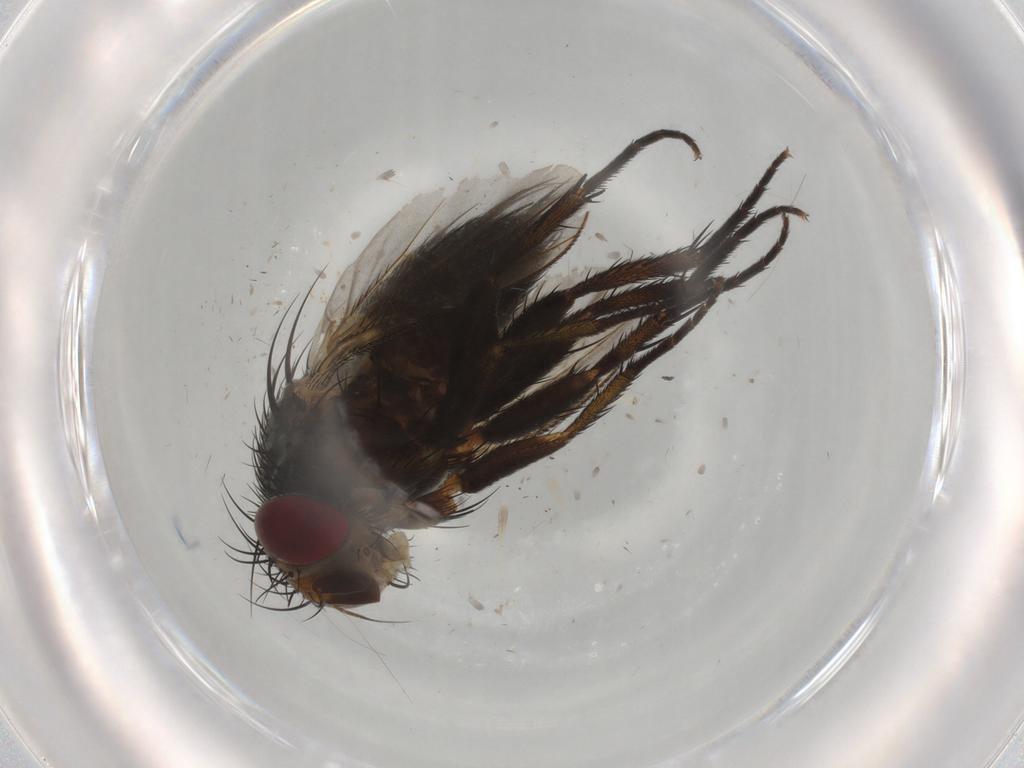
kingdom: Animalia
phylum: Arthropoda
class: Insecta
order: Diptera
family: Tachinidae
